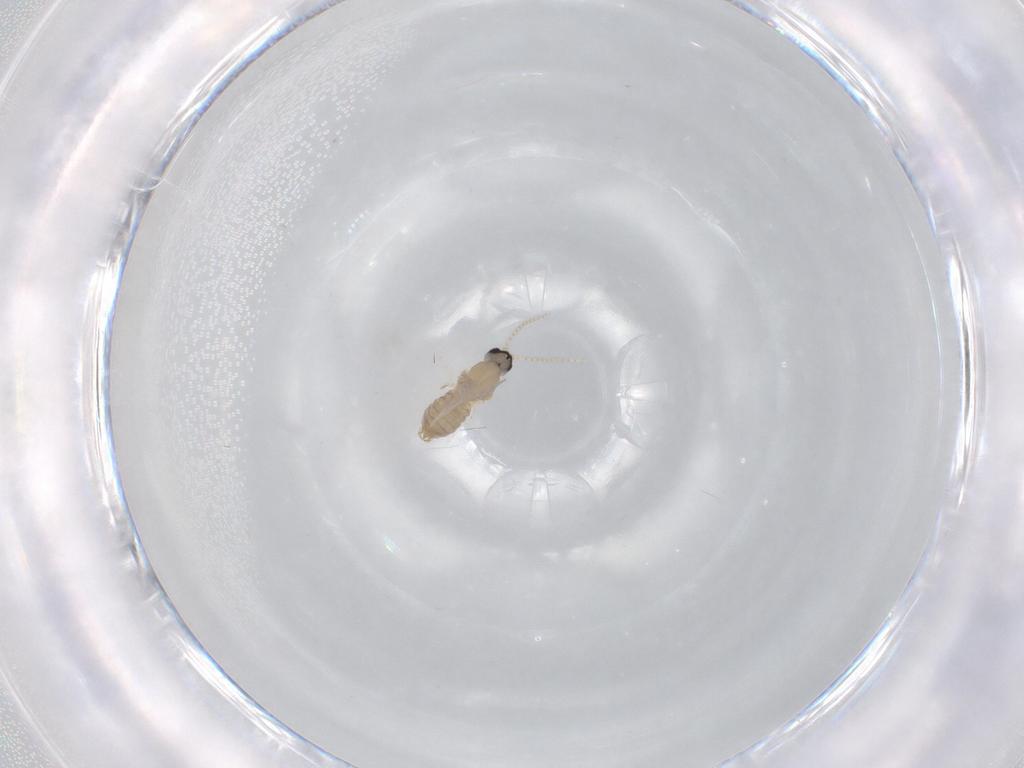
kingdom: Animalia
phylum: Arthropoda
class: Insecta
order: Diptera
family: Cecidomyiidae
